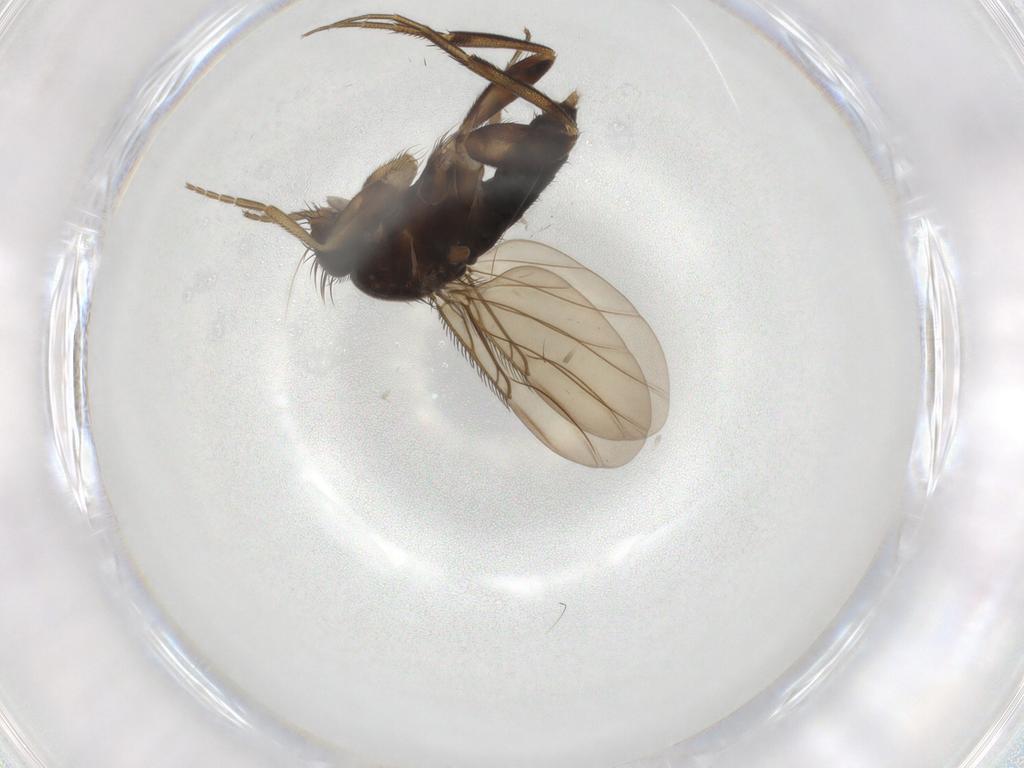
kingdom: Animalia
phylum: Arthropoda
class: Insecta
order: Diptera
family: Phoridae
